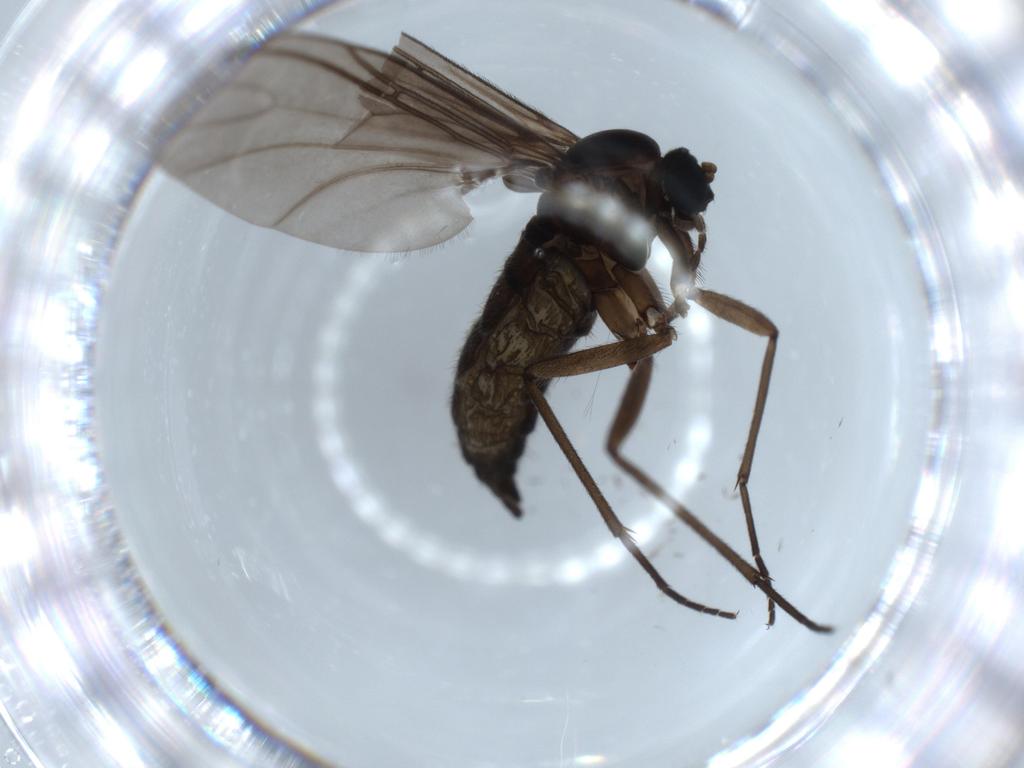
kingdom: Animalia
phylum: Arthropoda
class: Insecta
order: Diptera
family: Sciaridae
